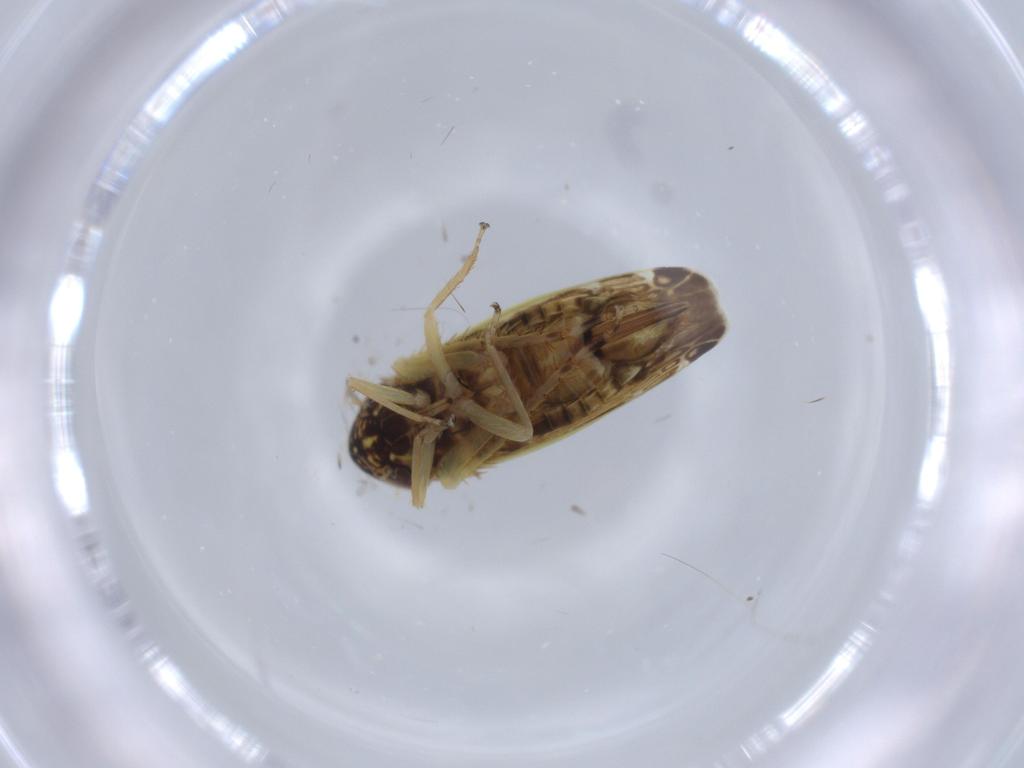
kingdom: Animalia
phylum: Arthropoda
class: Insecta
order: Hemiptera
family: Cicadellidae
